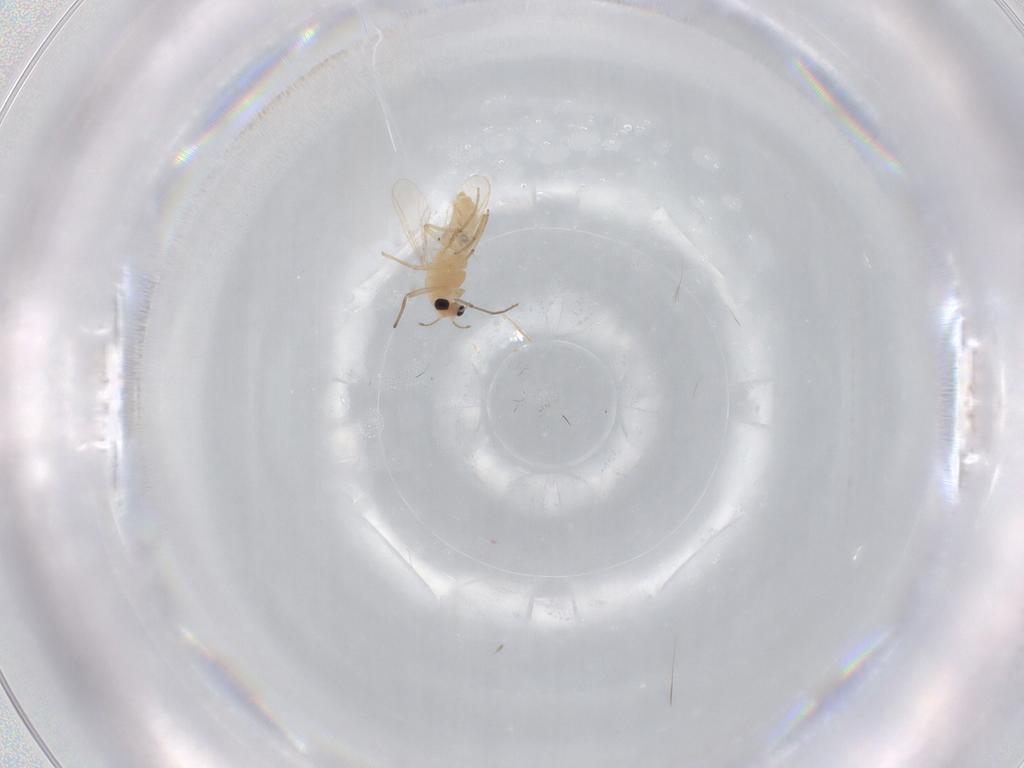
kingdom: Animalia
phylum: Arthropoda
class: Insecta
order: Diptera
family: Chironomidae
